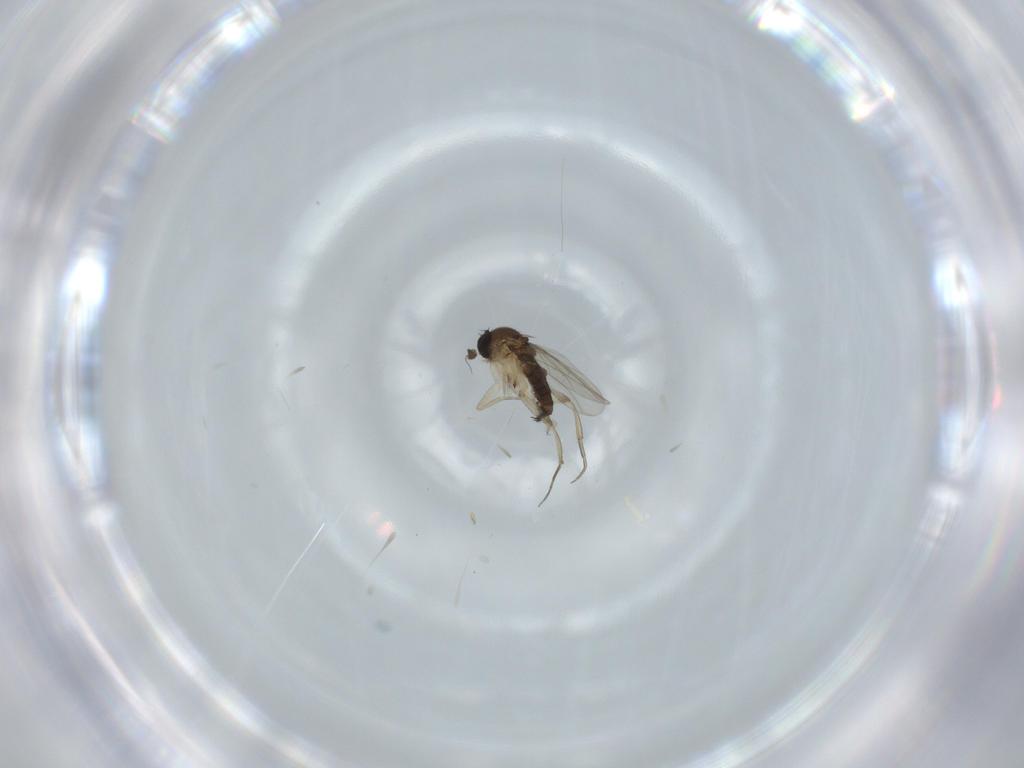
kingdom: Animalia
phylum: Arthropoda
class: Insecta
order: Diptera
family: Phoridae
